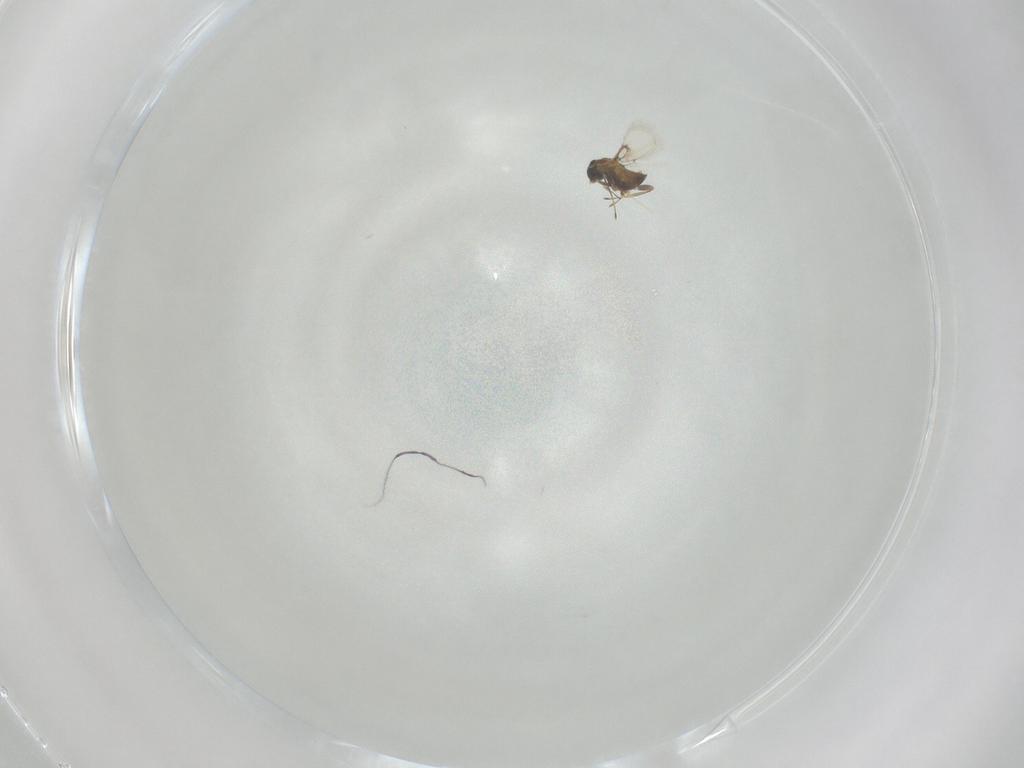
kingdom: Animalia
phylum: Arthropoda
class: Insecta
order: Hymenoptera
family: Trichogrammatidae
